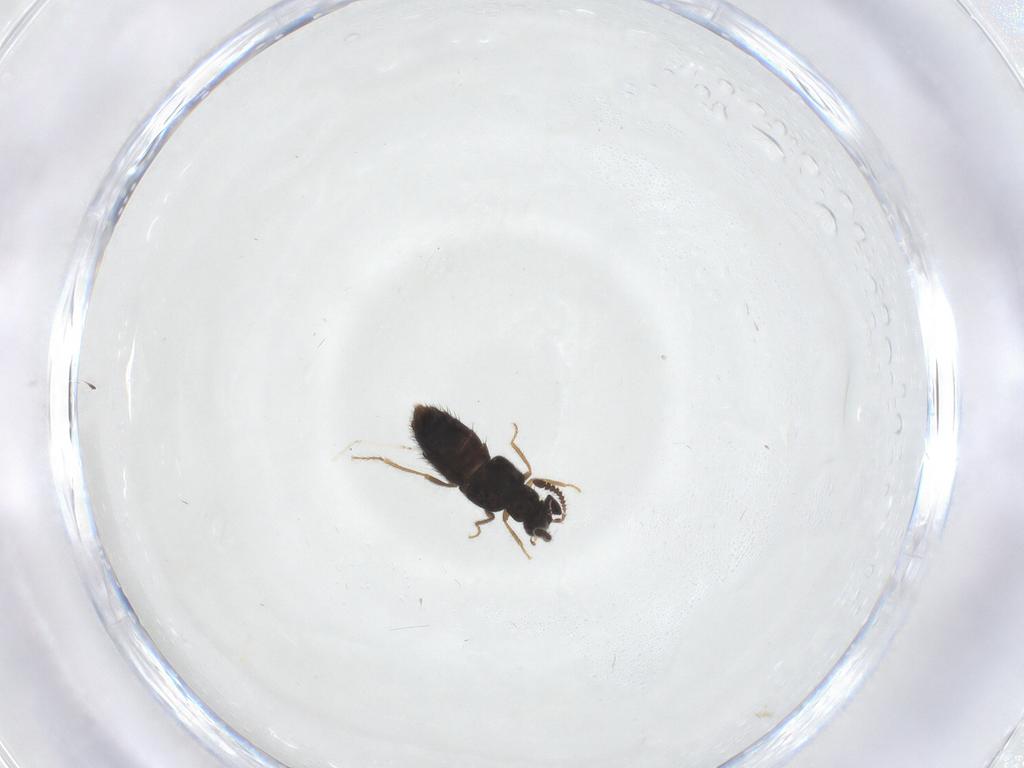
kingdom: Animalia
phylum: Arthropoda
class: Insecta
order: Coleoptera
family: Staphylinidae
